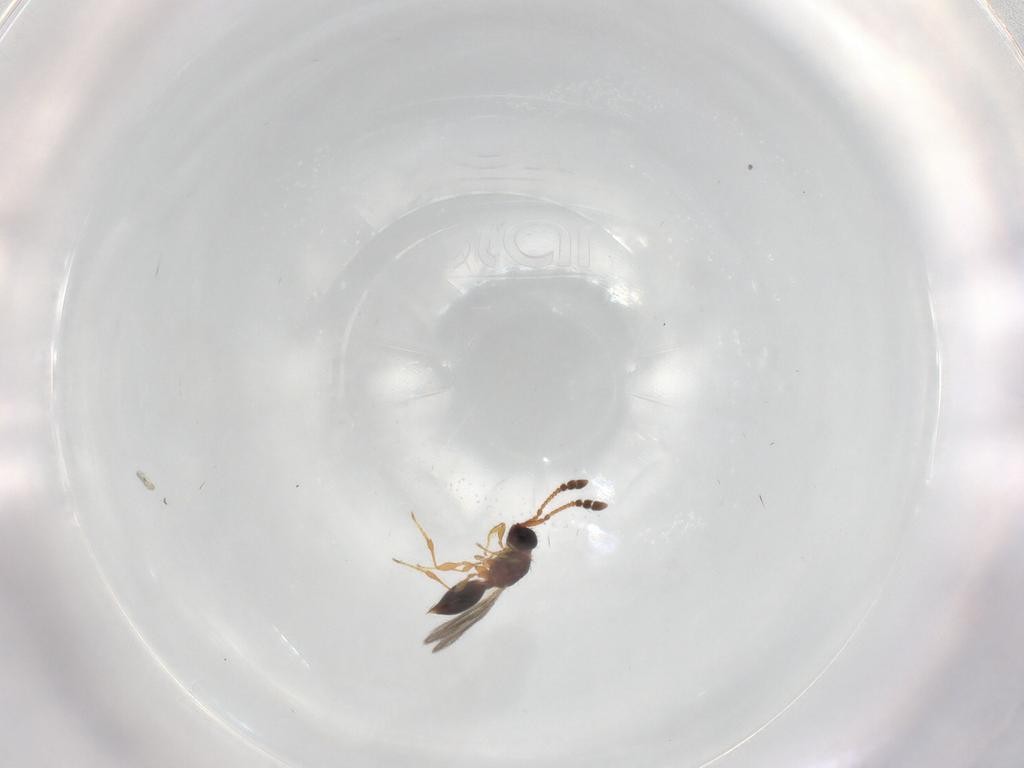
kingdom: Animalia
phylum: Arthropoda
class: Insecta
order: Hymenoptera
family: Diapriidae
